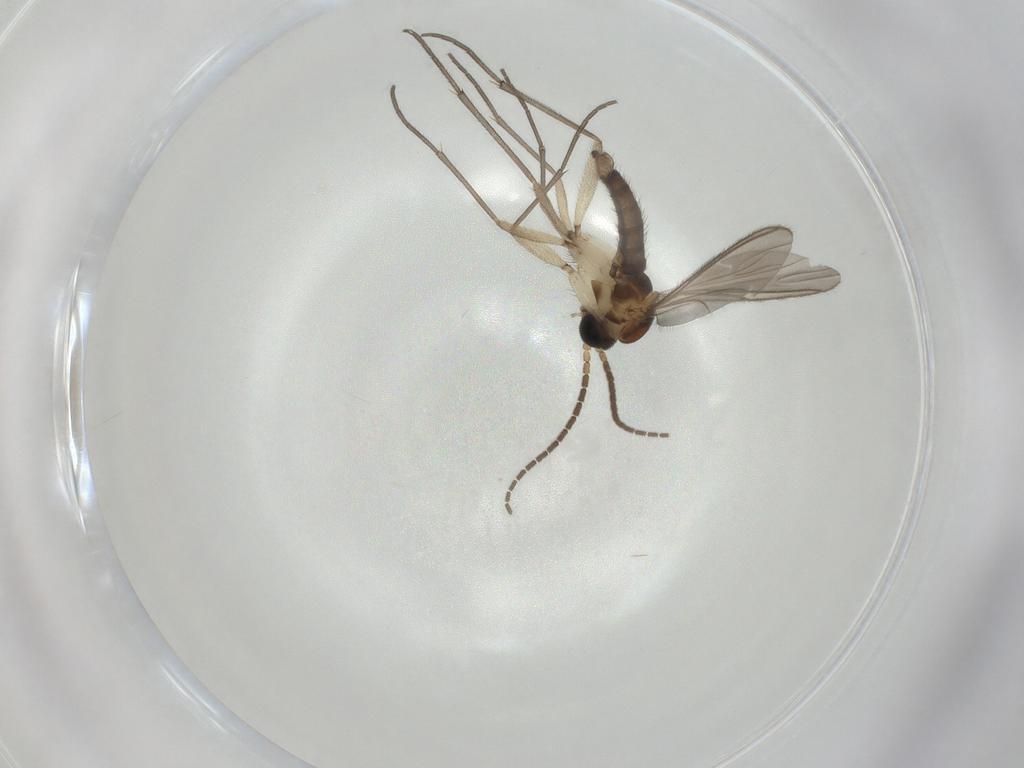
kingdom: Animalia
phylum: Arthropoda
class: Insecta
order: Diptera
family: Sciaridae
